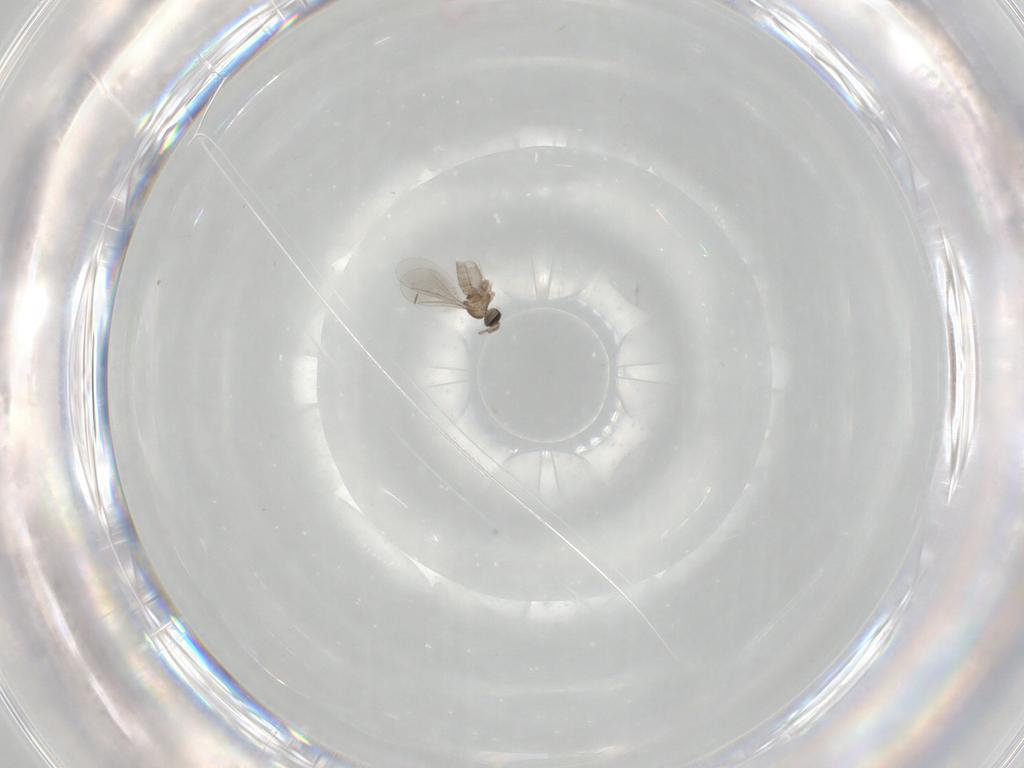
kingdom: Animalia
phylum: Arthropoda
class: Insecta
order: Diptera
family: Cecidomyiidae
